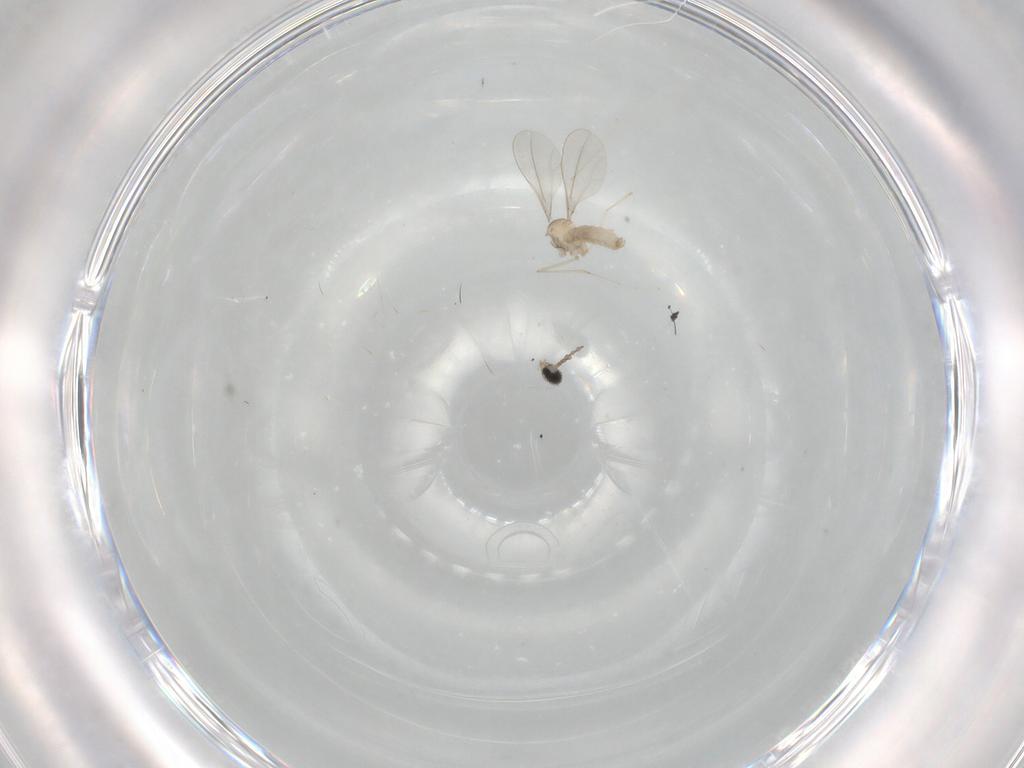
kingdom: Animalia
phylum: Arthropoda
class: Insecta
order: Diptera
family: Cecidomyiidae
